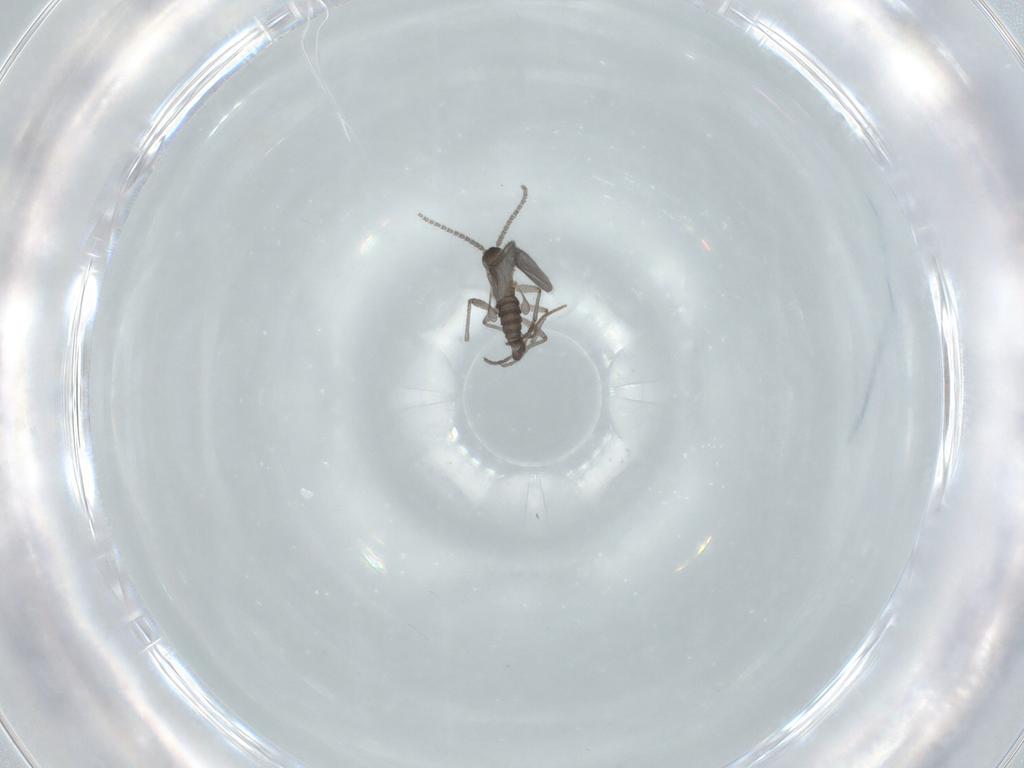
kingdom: Animalia
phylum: Arthropoda
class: Insecta
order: Diptera
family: Sciaridae
